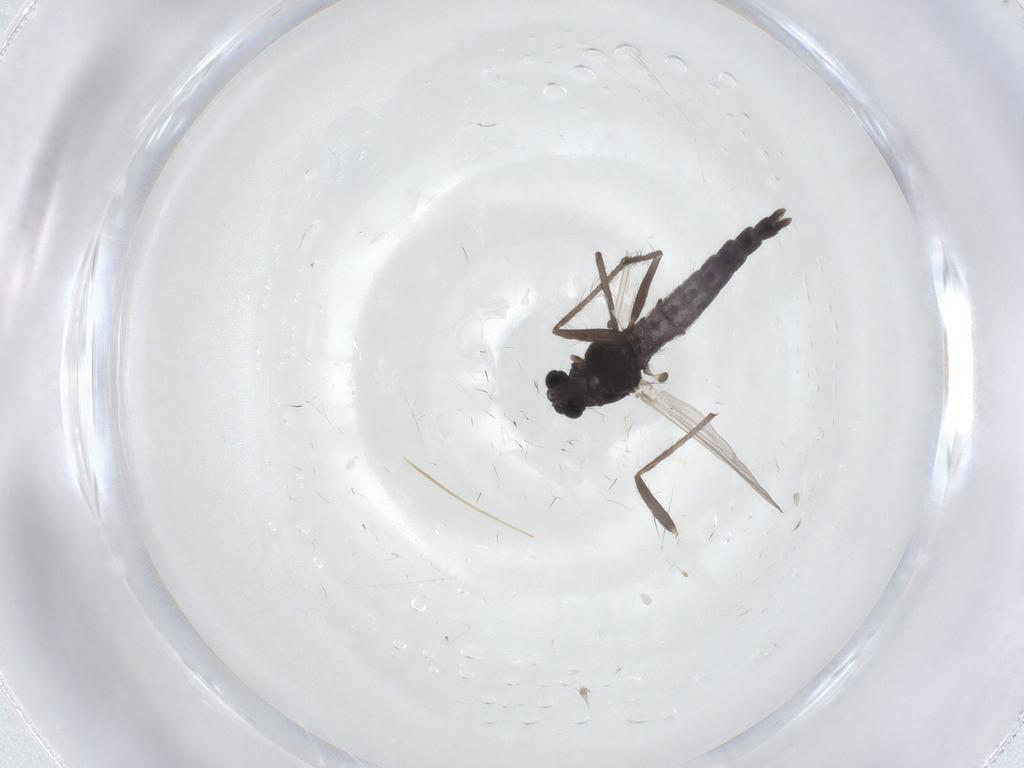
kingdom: Animalia
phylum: Arthropoda
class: Insecta
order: Diptera
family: Chironomidae
